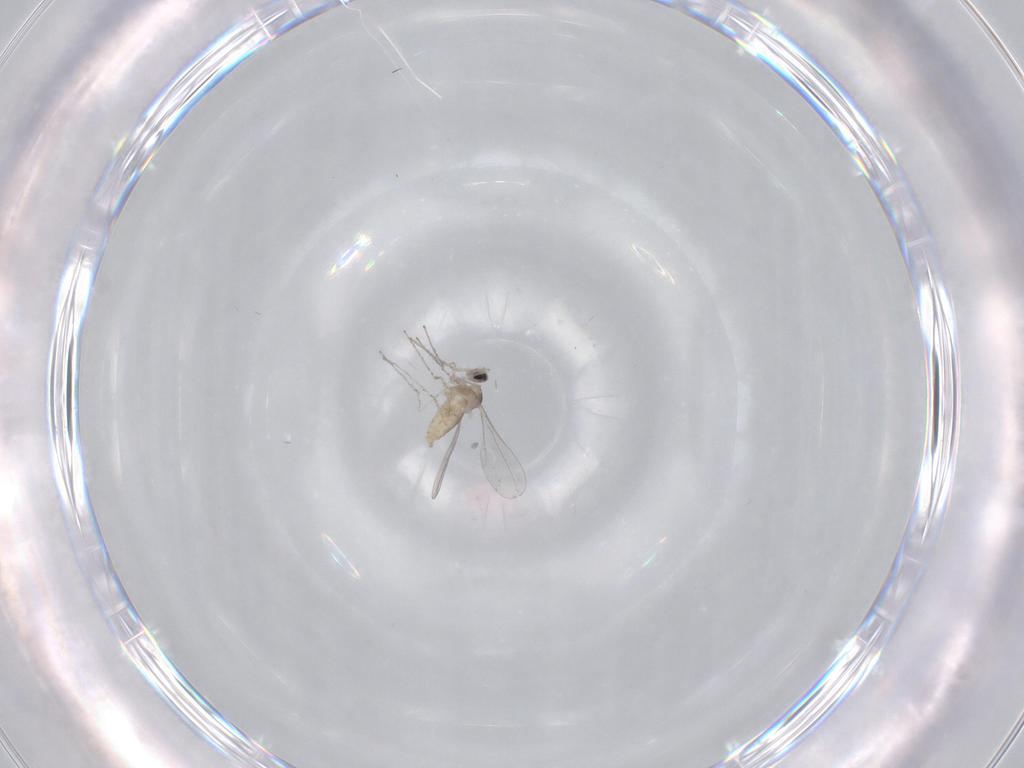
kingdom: Animalia
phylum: Arthropoda
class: Insecta
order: Diptera
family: Cecidomyiidae
